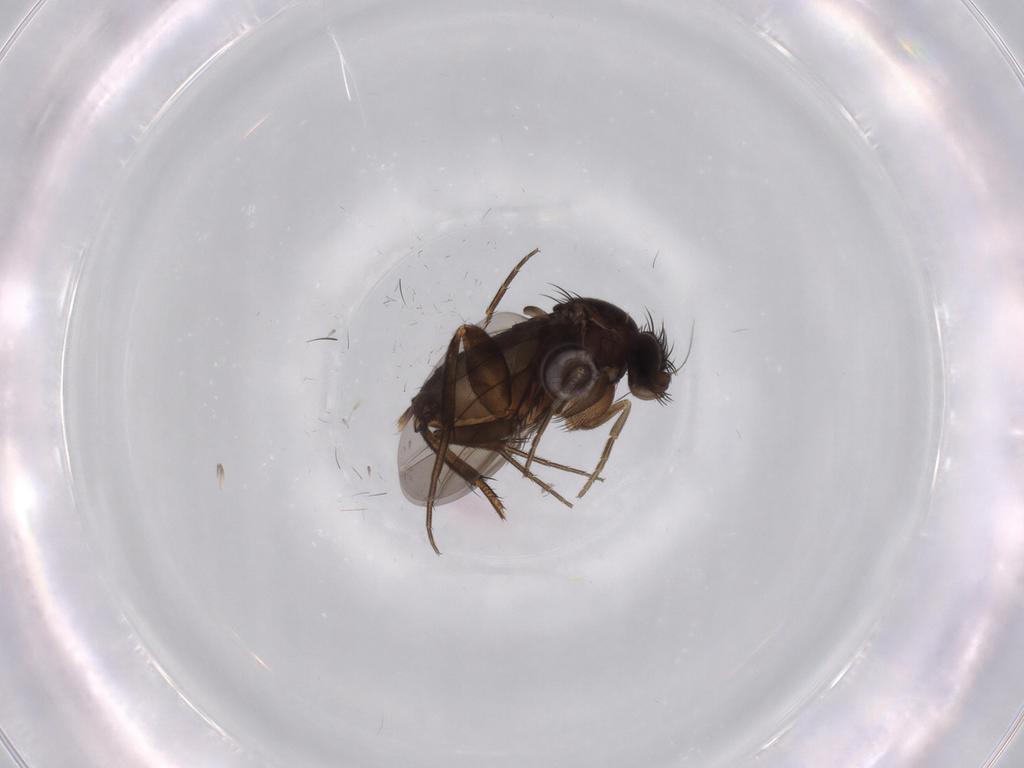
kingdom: Animalia
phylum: Arthropoda
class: Insecta
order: Diptera
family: Phoridae
